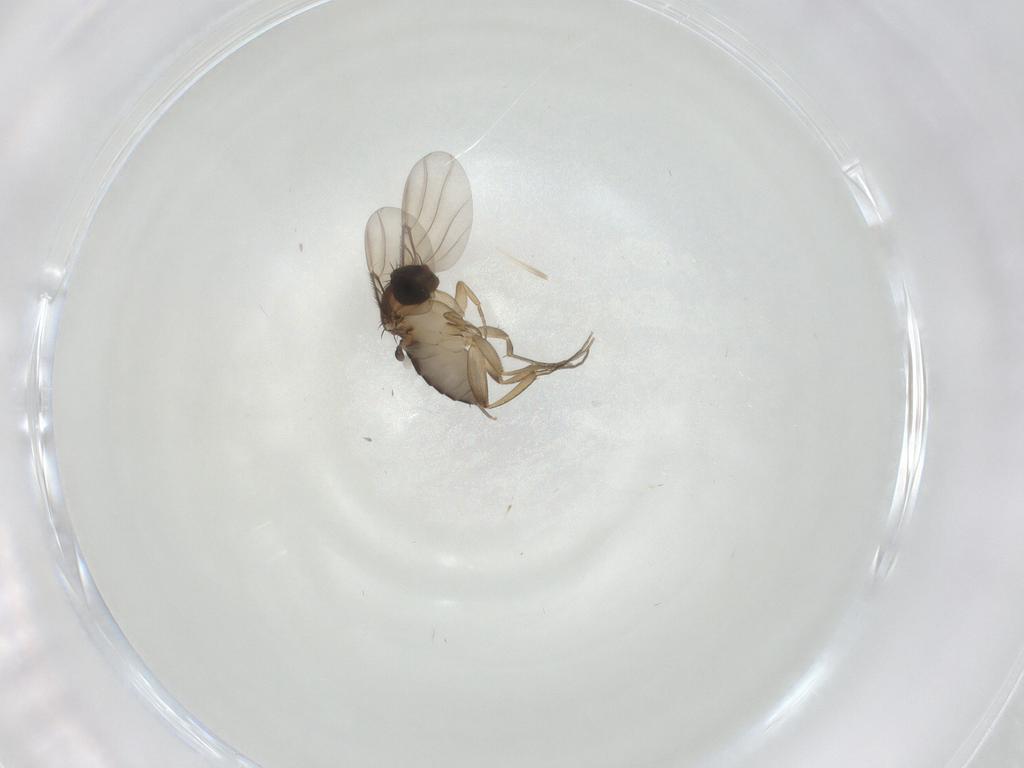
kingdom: Animalia
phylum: Arthropoda
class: Insecta
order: Diptera
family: Phoridae
